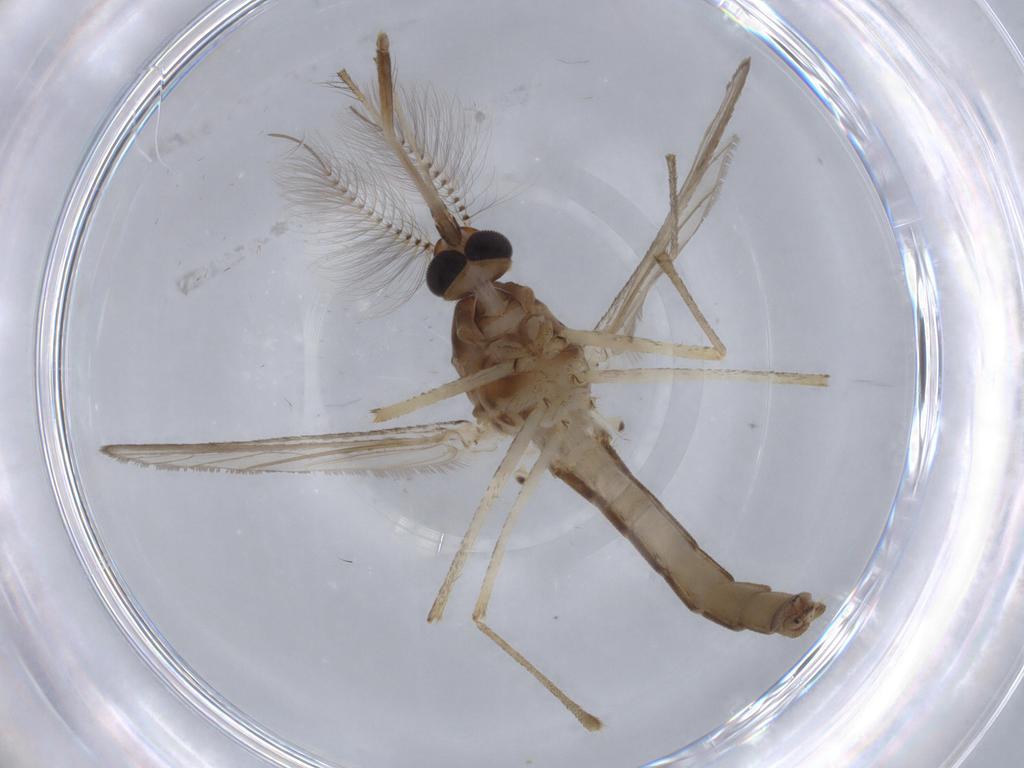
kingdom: Animalia
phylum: Arthropoda
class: Insecta
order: Diptera
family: Culicidae
